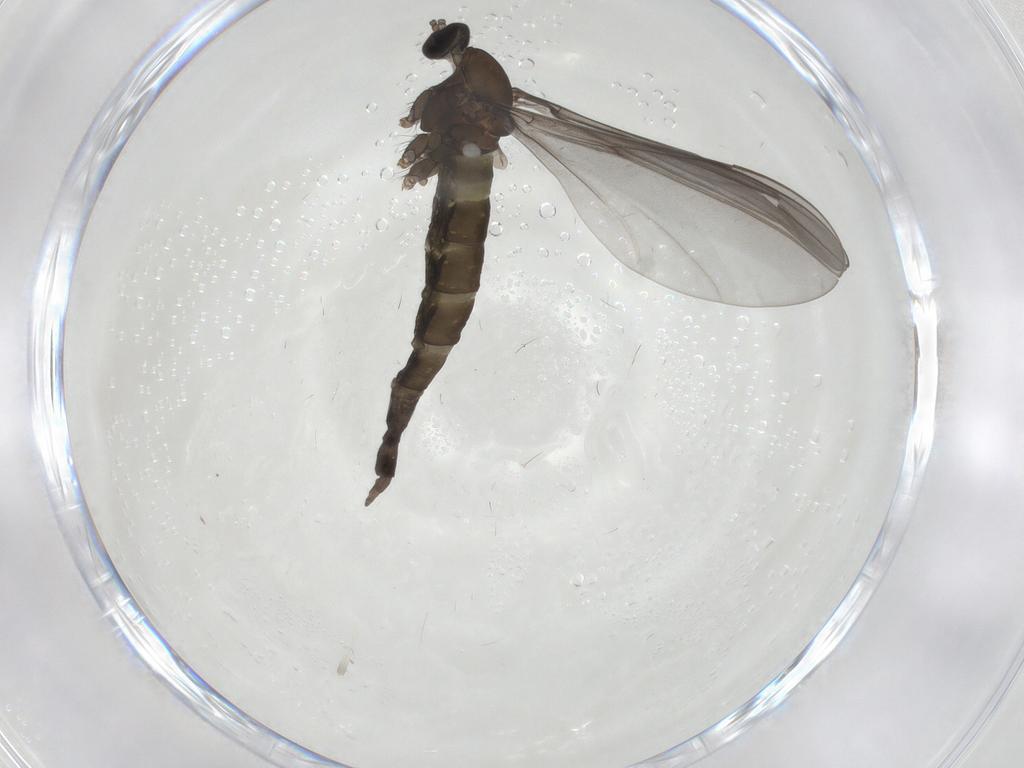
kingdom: Animalia
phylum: Arthropoda
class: Insecta
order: Diptera
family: Cecidomyiidae
